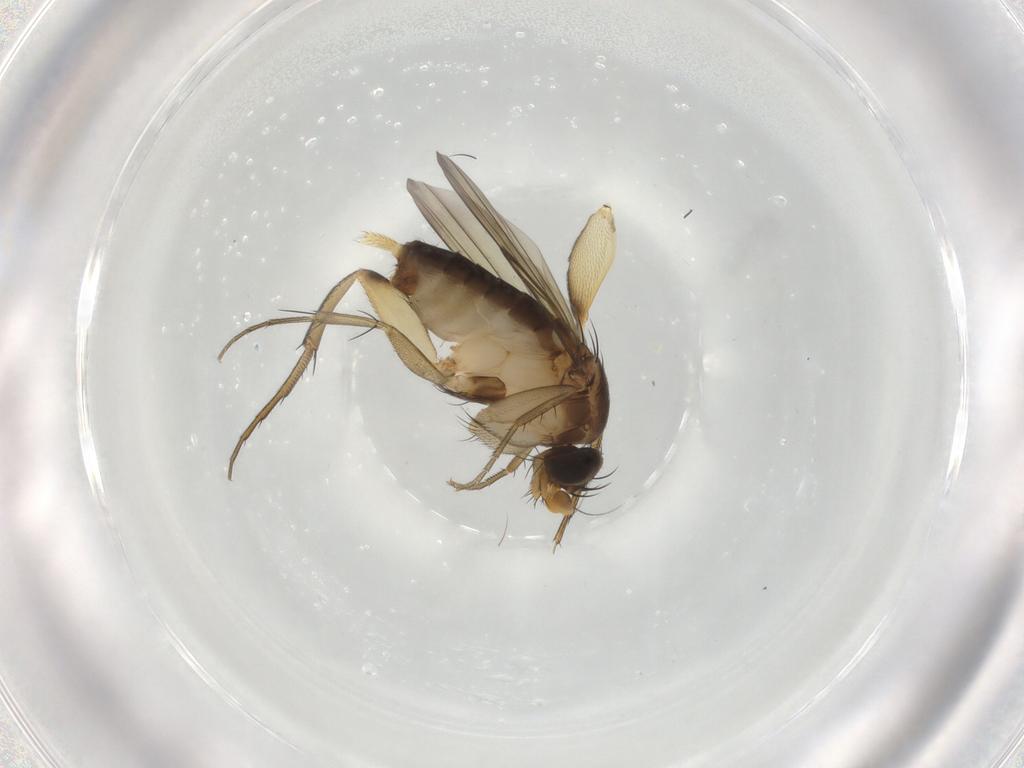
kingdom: Animalia
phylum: Arthropoda
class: Insecta
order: Diptera
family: Phoridae
